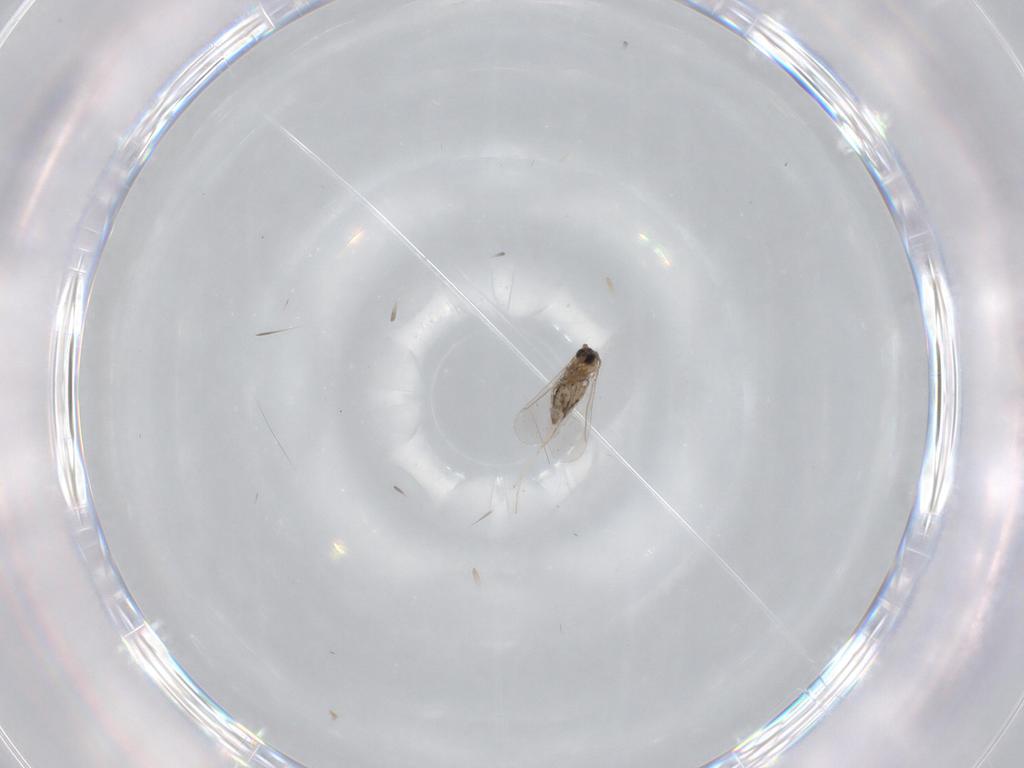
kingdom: Animalia
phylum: Arthropoda
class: Insecta
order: Diptera
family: Cecidomyiidae
